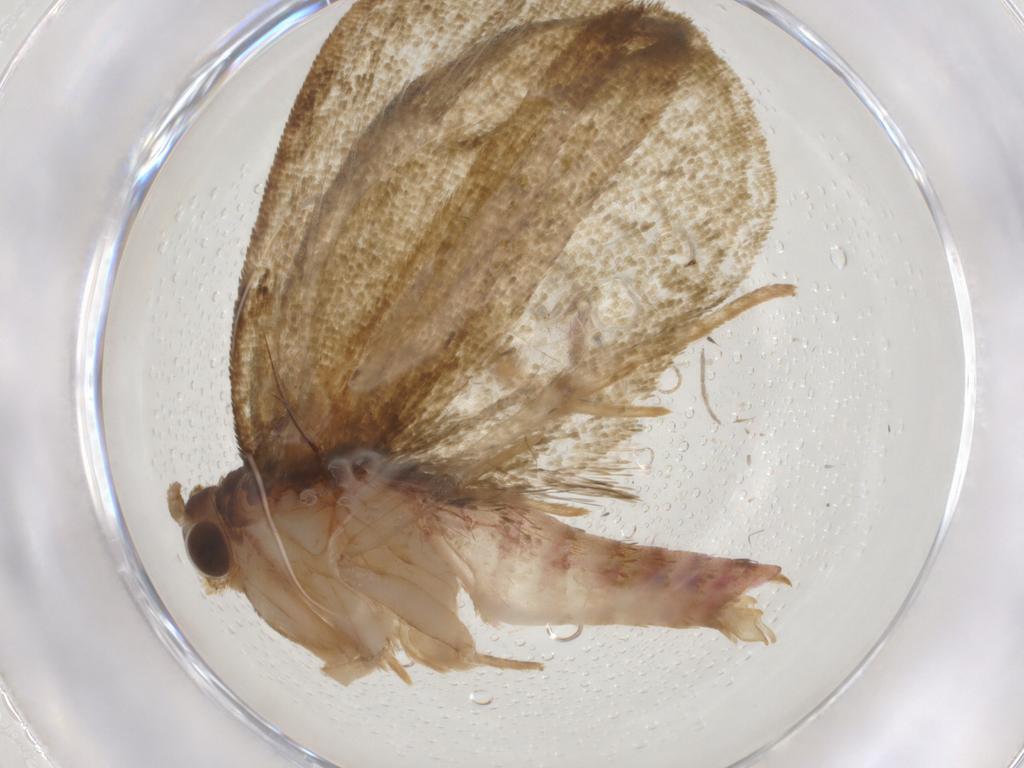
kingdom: Animalia
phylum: Arthropoda
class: Insecta
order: Lepidoptera
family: Geometridae
